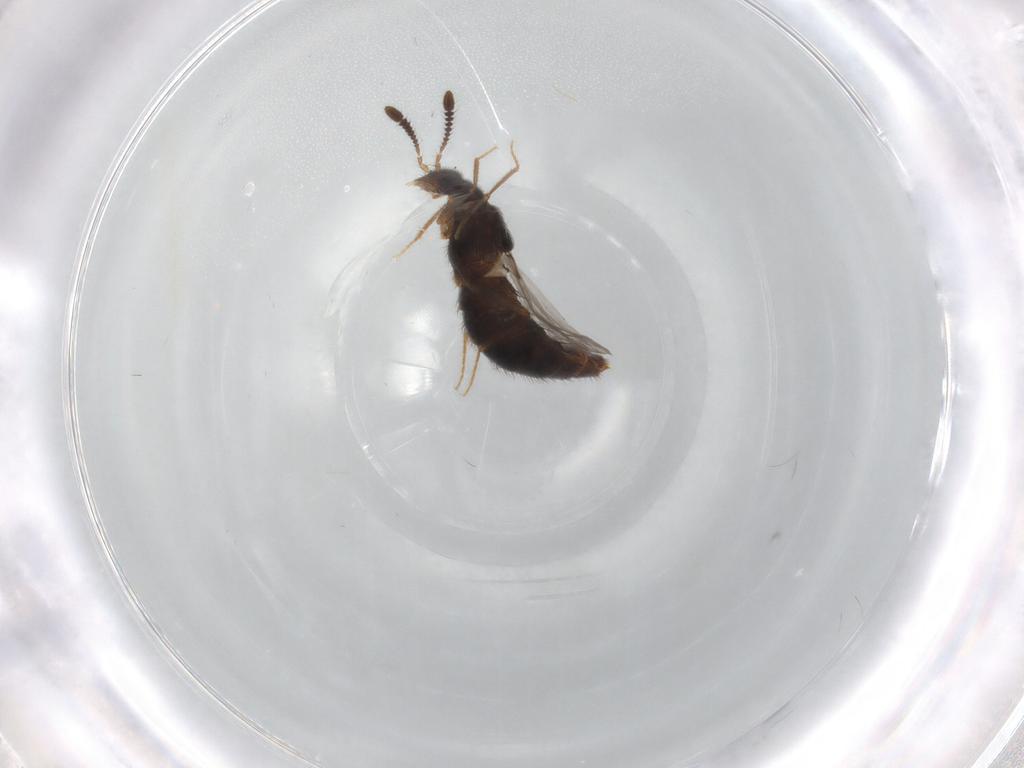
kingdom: Animalia
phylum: Arthropoda
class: Insecta
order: Coleoptera
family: Staphylinidae
